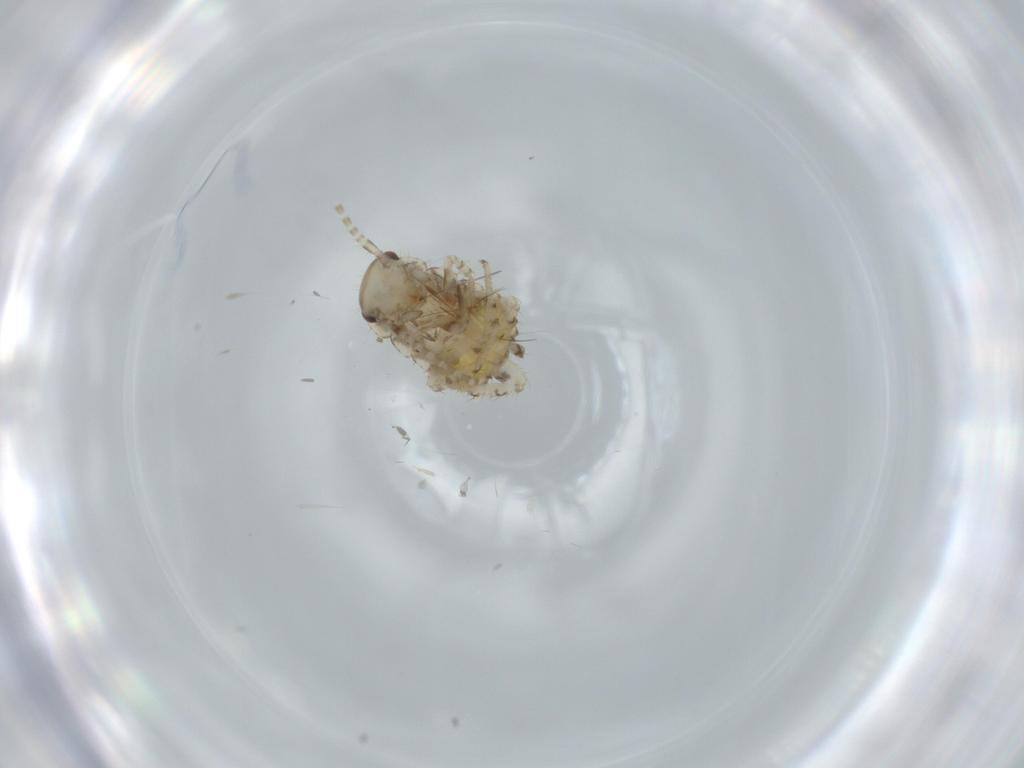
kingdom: Animalia
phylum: Arthropoda
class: Insecta
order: Blattodea
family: Ectobiidae
